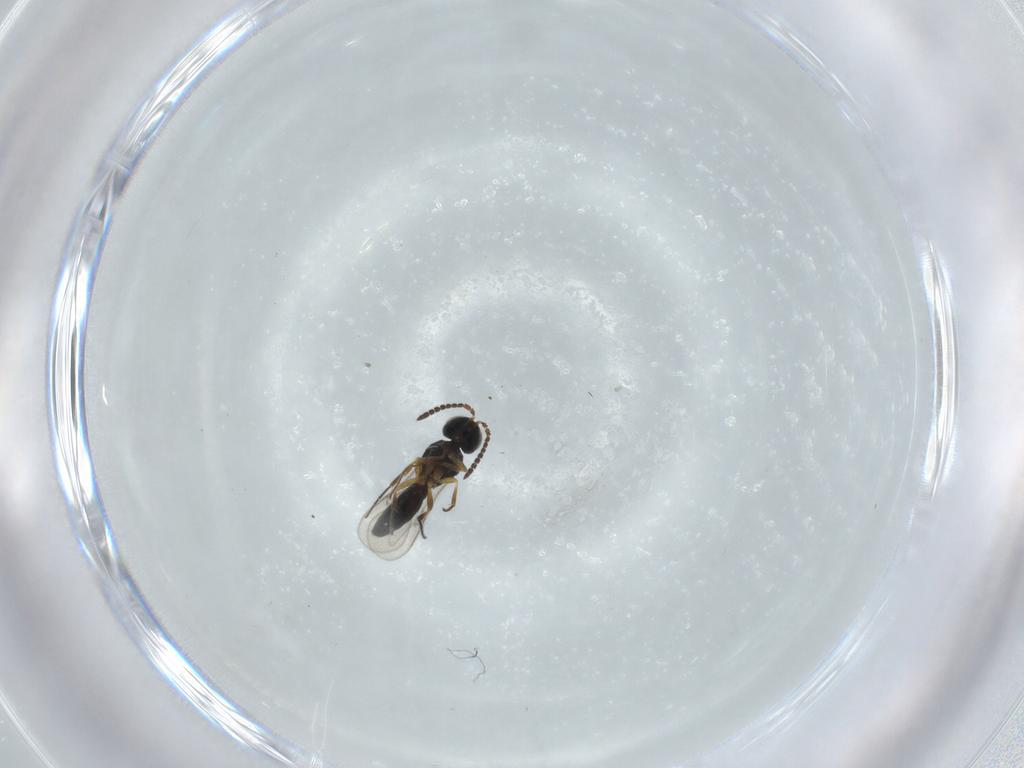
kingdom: Animalia
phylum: Arthropoda
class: Insecta
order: Hymenoptera
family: Scelionidae
